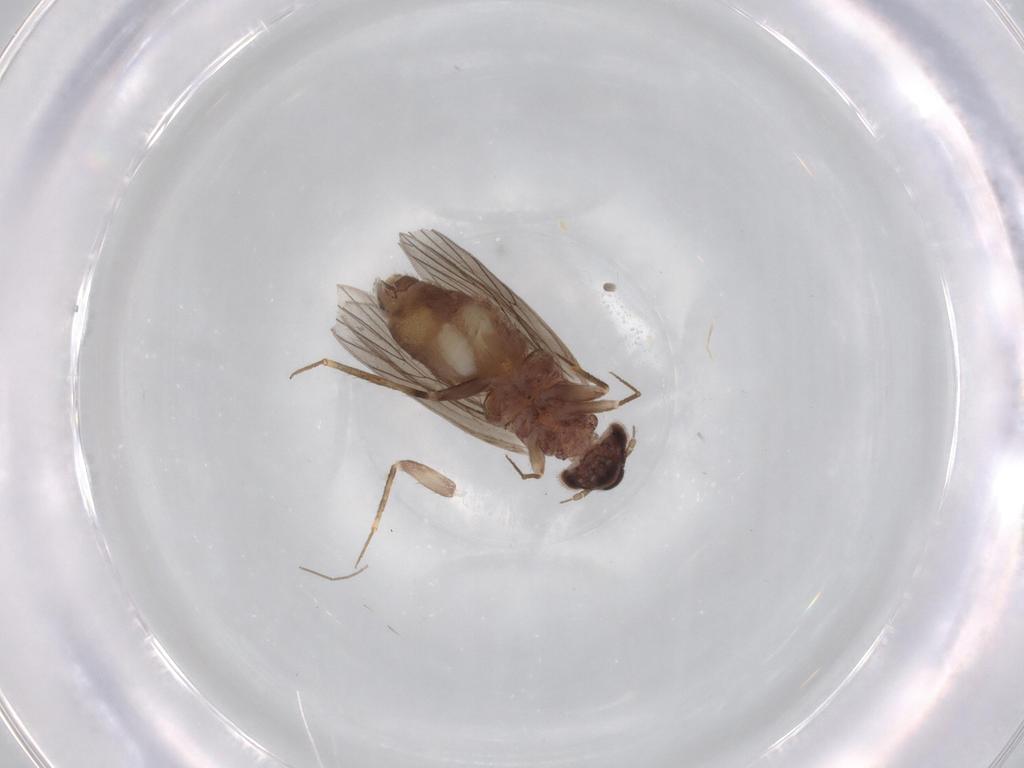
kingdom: Animalia
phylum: Arthropoda
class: Insecta
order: Psocodea
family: Lepidopsocidae
